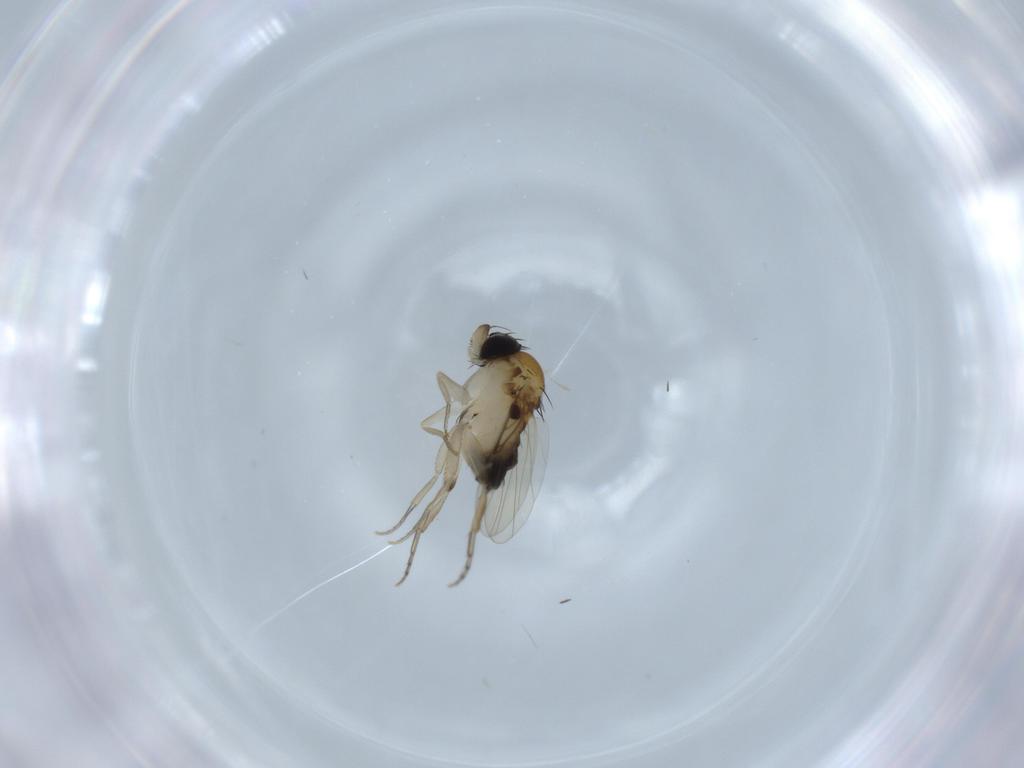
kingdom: Animalia
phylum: Arthropoda
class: Insecta
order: Diptera
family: Phoridae
